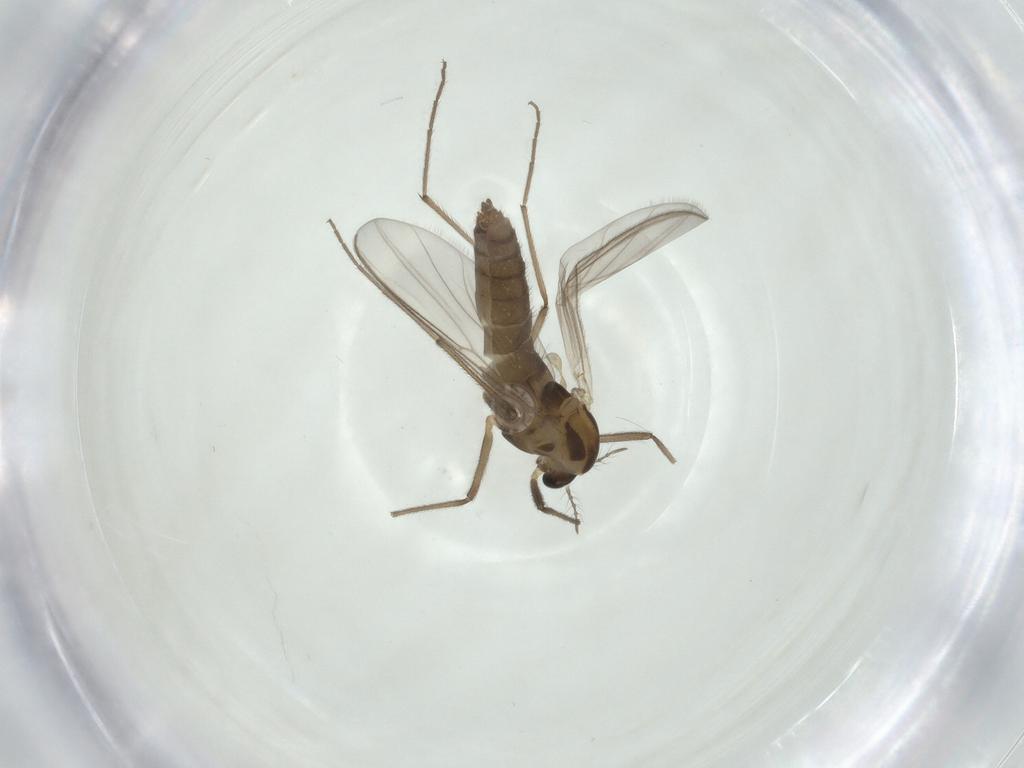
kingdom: Animalia
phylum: Arthropoda
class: Insecta
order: Diptera
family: Chironomidae
